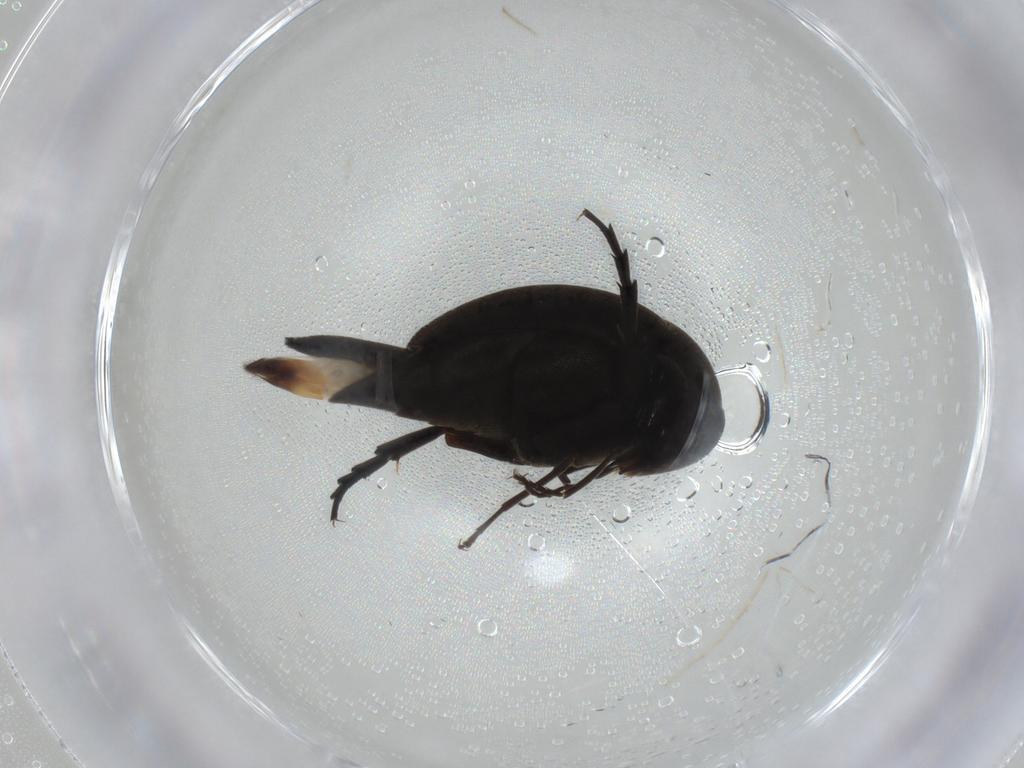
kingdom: Animalia
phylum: Arthropoda
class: Insecta
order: Coleoptera
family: Mordellidae
